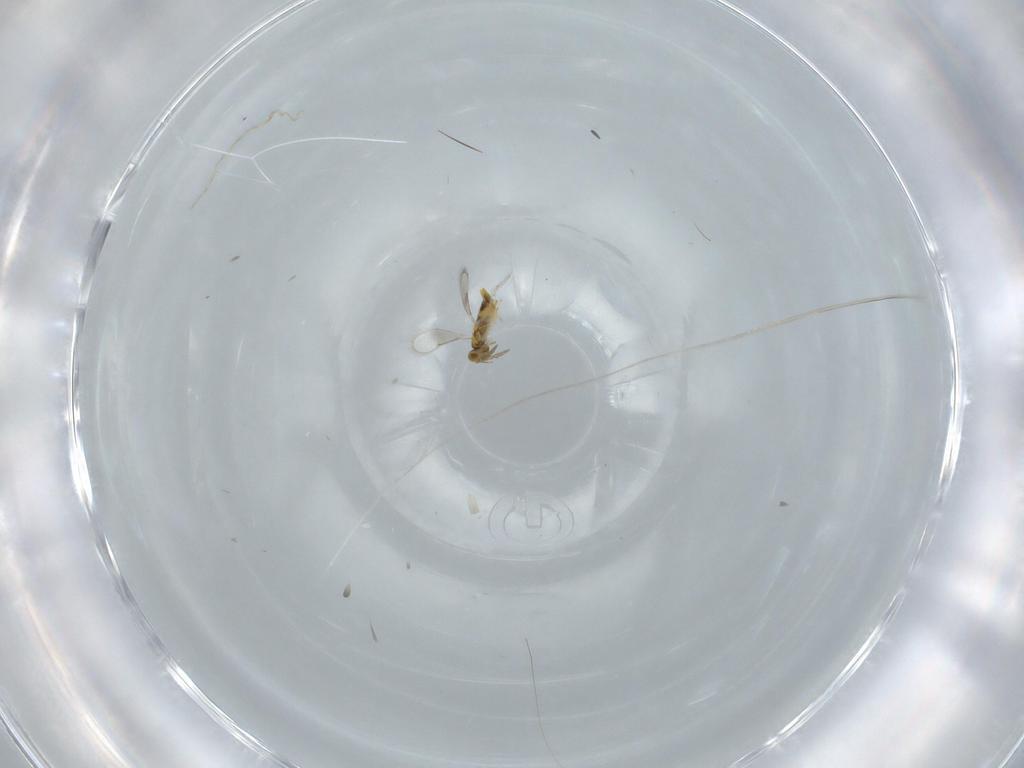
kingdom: Animalia
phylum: Arthropoda
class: Insecta
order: Hymenoptera
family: Aphelinidae
